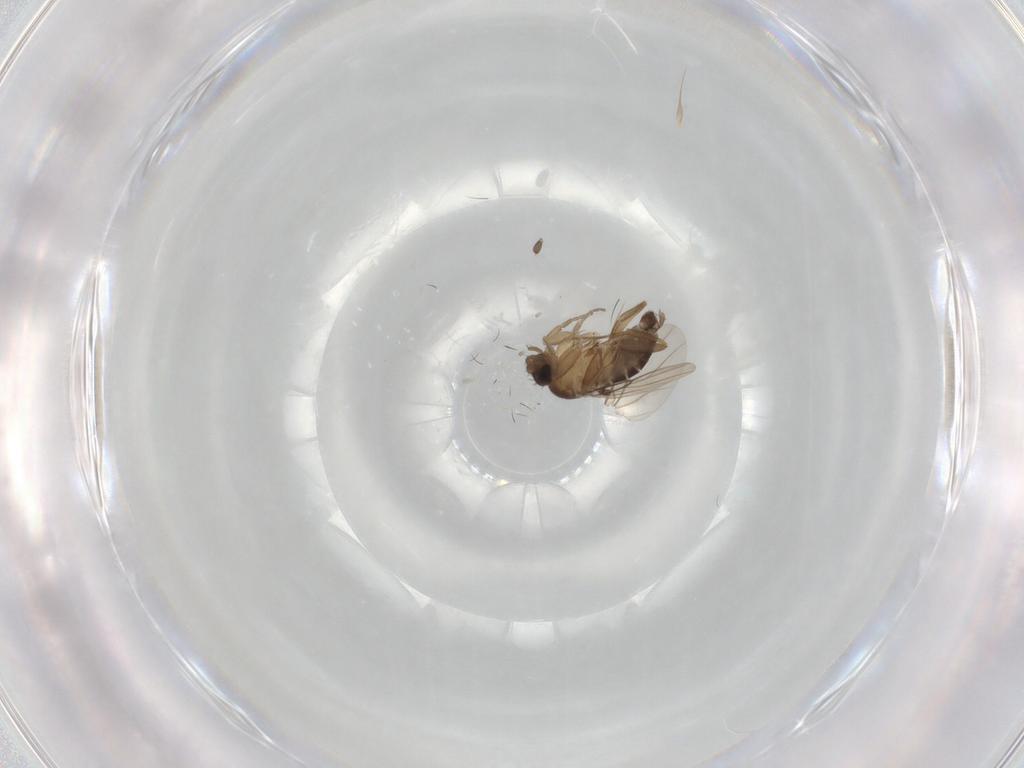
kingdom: Animalia
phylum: Arthropoda
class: Insecta
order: Diptera
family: Phoridae
